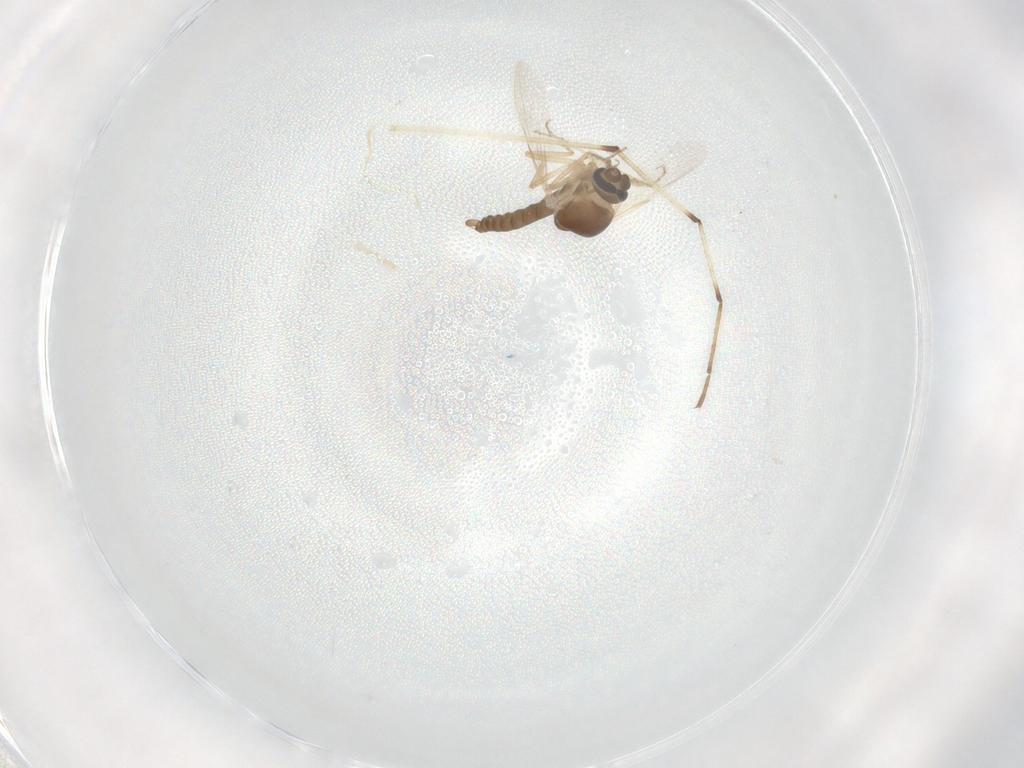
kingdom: Animalia
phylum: Arthropoda
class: Insecta
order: Diptera
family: Ceratopogonidae
